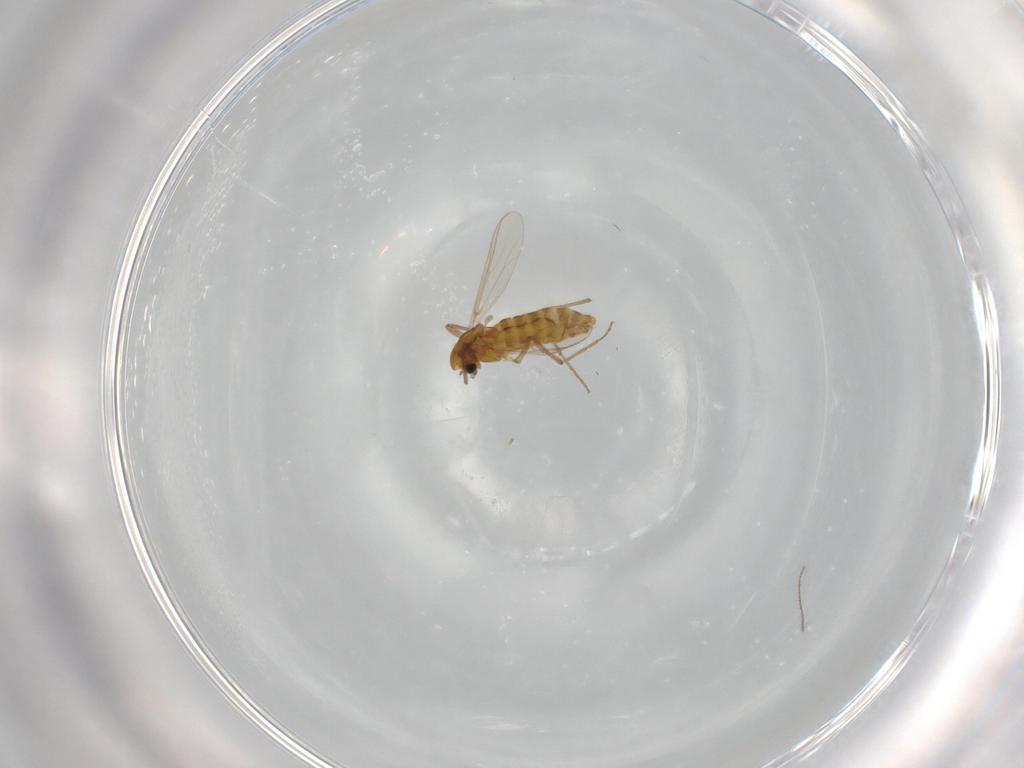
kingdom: Animalia
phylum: Arthropoda
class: Insecta
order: Diptera
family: Chironomidae
